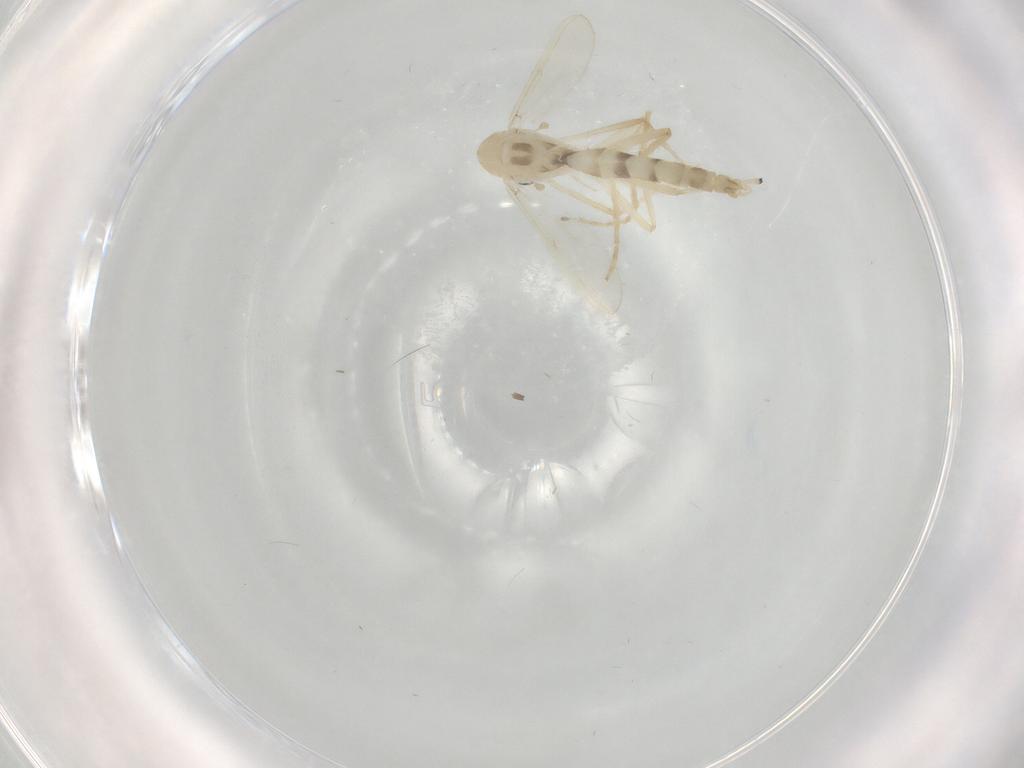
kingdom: Animalia
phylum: Arthropoda
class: Insecta
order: Diptera
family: Chironomidae
